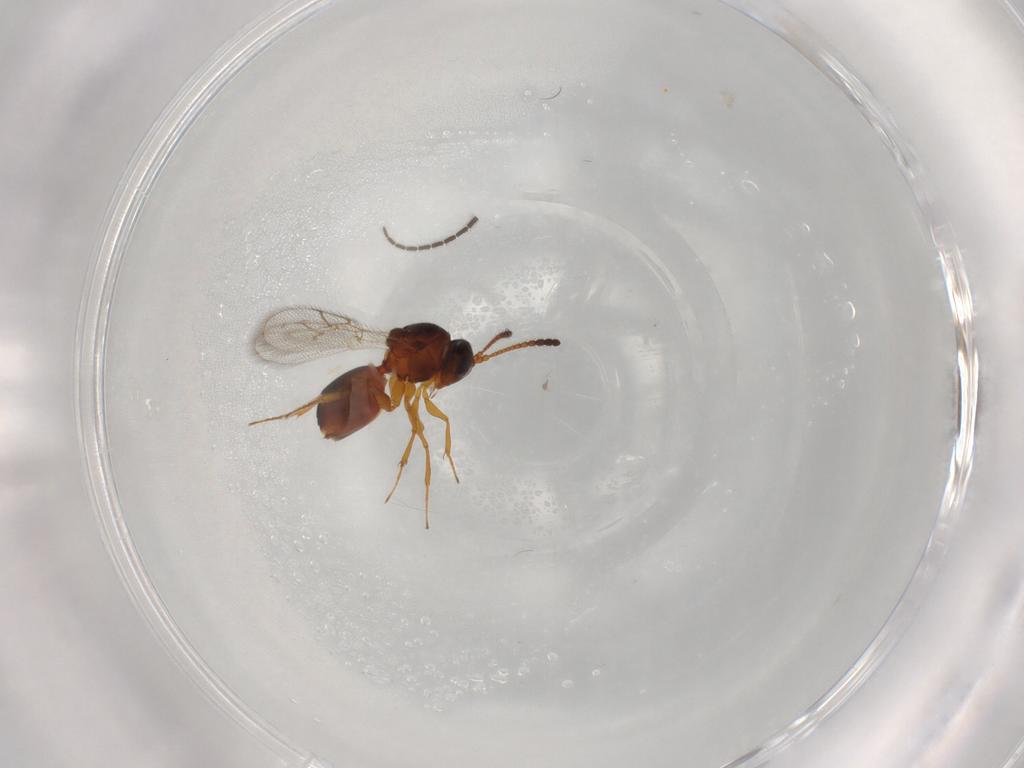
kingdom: Animalia
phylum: Arthropoda
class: Insecta
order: Hymenoptera
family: Figitidae
